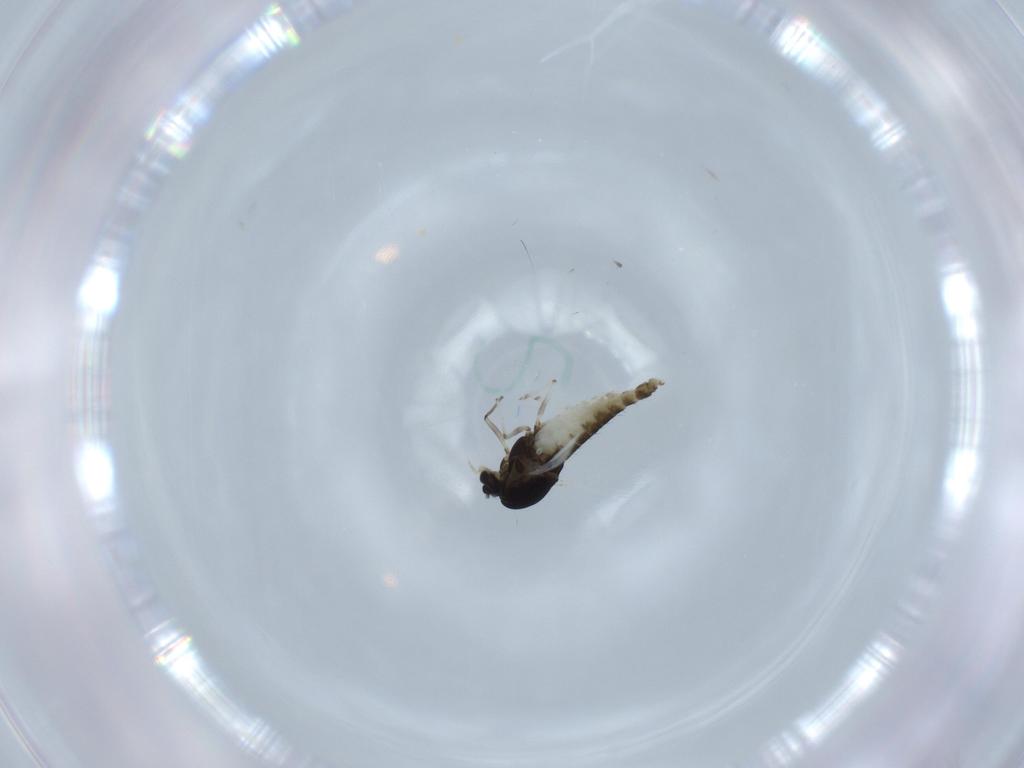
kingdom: Animalia
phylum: Arthropoda
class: Insecta
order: Diptera
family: Chironomidae
